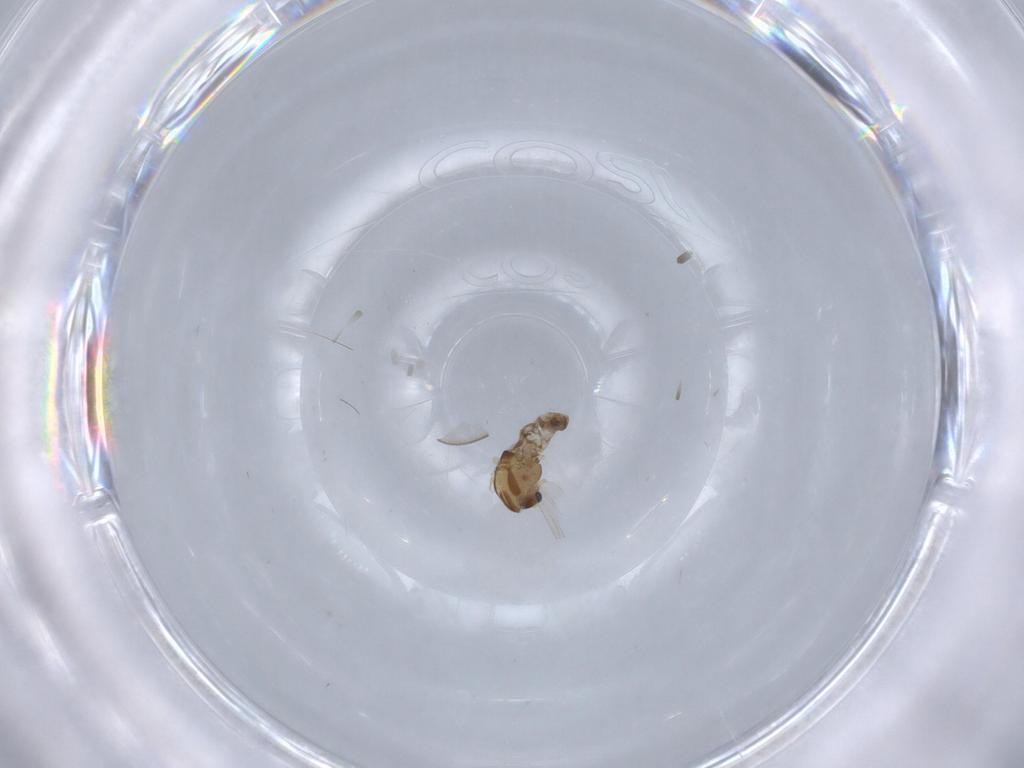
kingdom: Animalia
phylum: Arthropoda
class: Insecta
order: Diptera
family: Chironomidae
